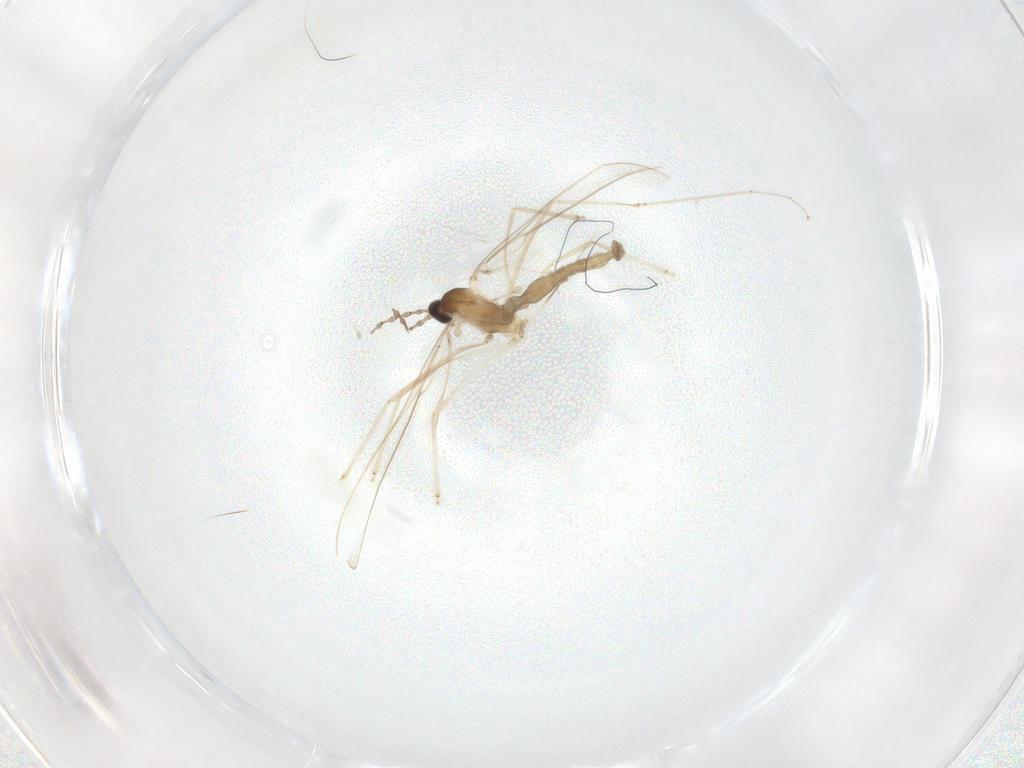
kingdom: Animalia
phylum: Arthropoda
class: Insecta
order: Diptera
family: Cecidomyiidae
